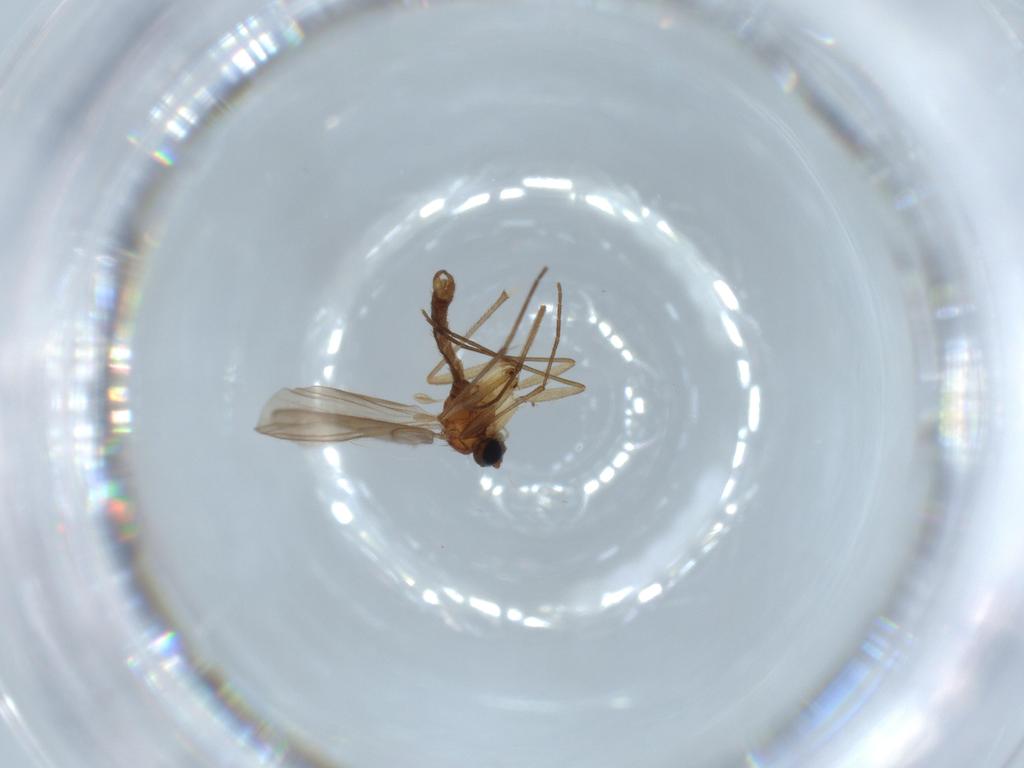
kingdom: Animalia
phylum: Arthropoda
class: Insecta
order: Diptera
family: Sciaridae
